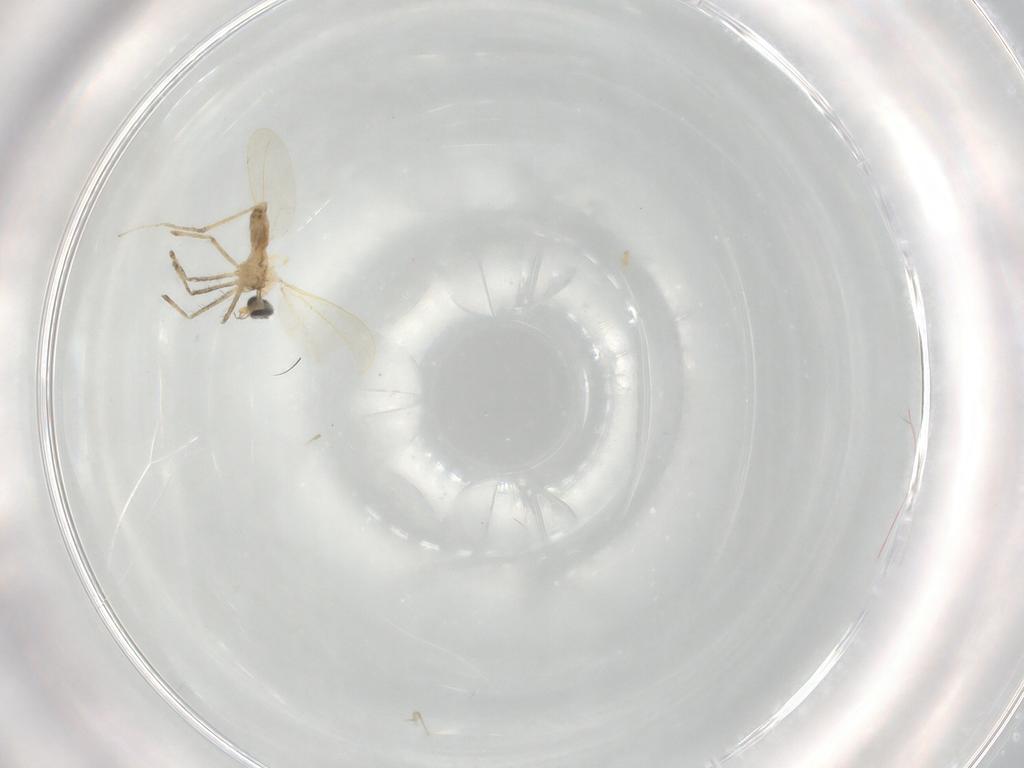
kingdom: Animalia
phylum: Arthropoda
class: Insecta
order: Diptera
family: Cecidomyiidae
